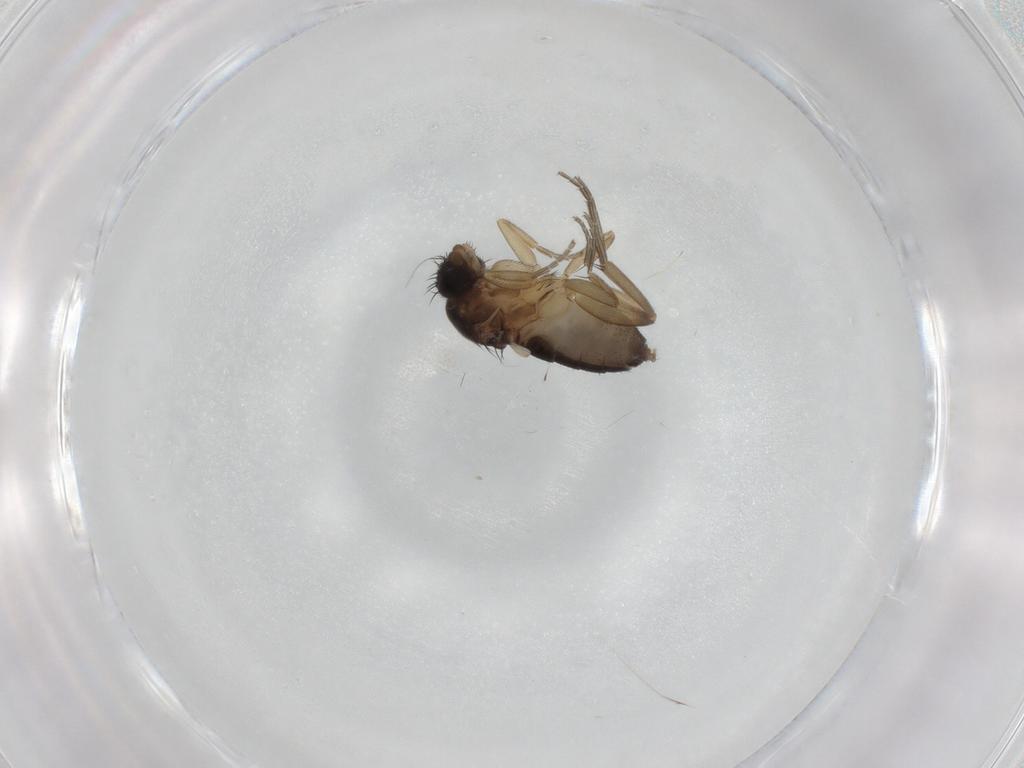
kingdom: Animalia
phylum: Arthropoda
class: Insecta
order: Diptera
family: Phoridae
